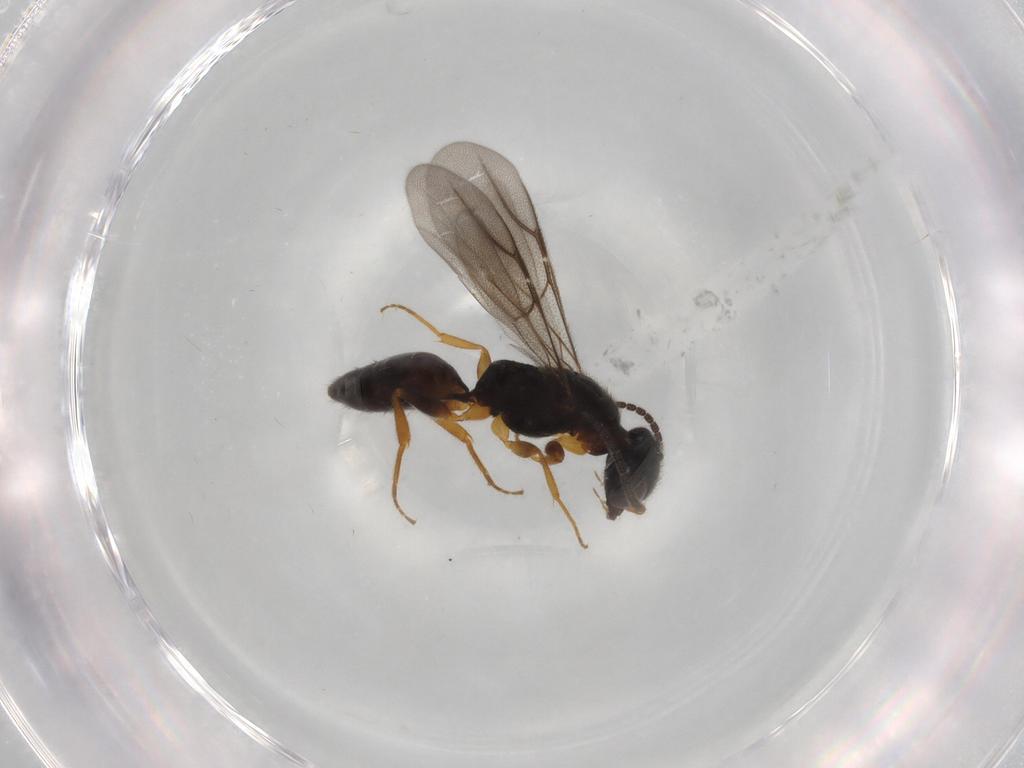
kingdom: Animalia
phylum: Arthropoda
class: Insecta
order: Hymenoptera
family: Bethylidae
